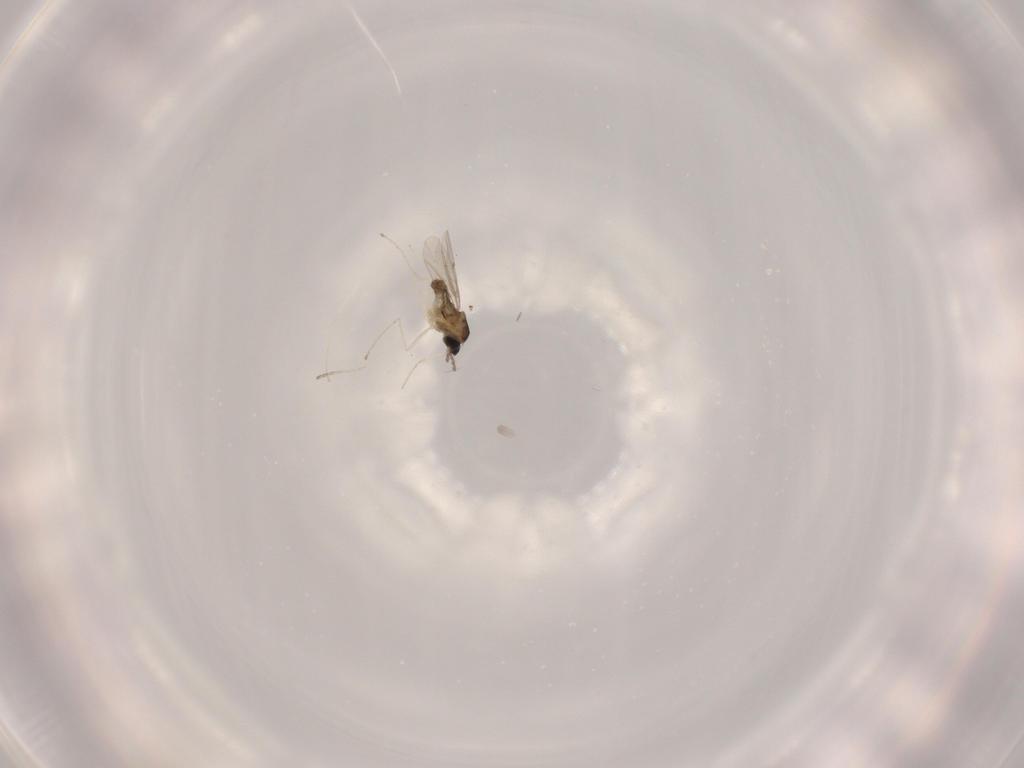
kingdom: Animalia
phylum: Arthropoda
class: Insecta
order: Diptera
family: Cecidomyiidae
